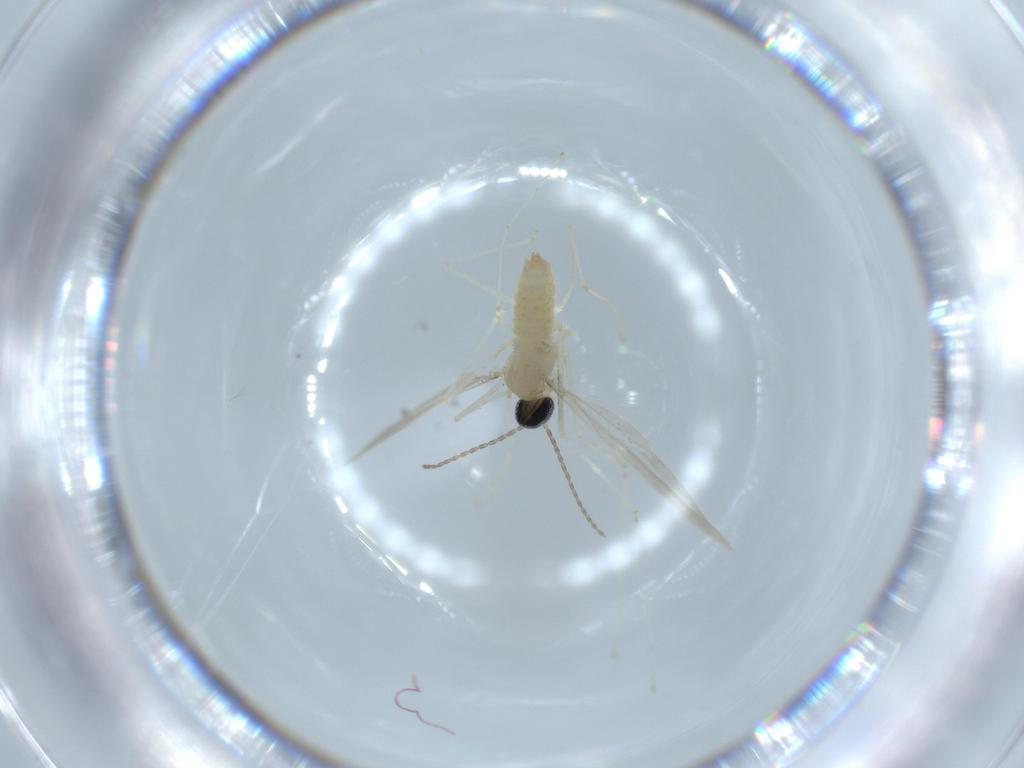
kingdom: Animalia
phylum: Arthropoda
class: Insecta
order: Diptera
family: Cecidomyiidae
